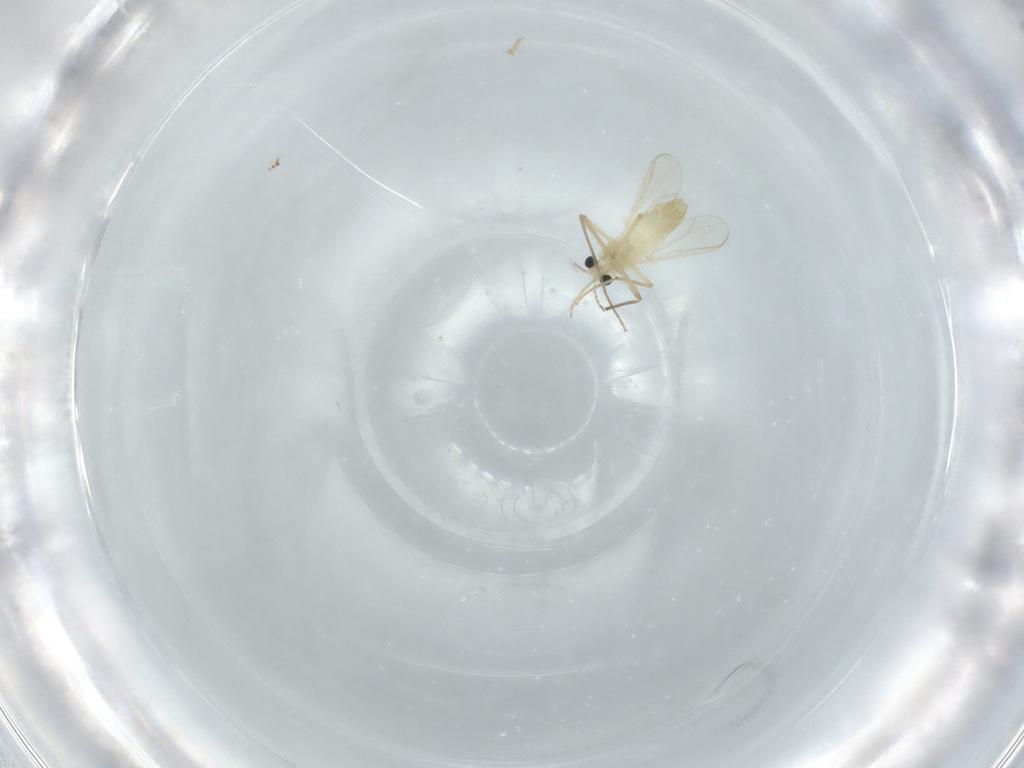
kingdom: Animalia
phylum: Arthropoda
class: Insecta
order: Diptera
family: Chironomidae
